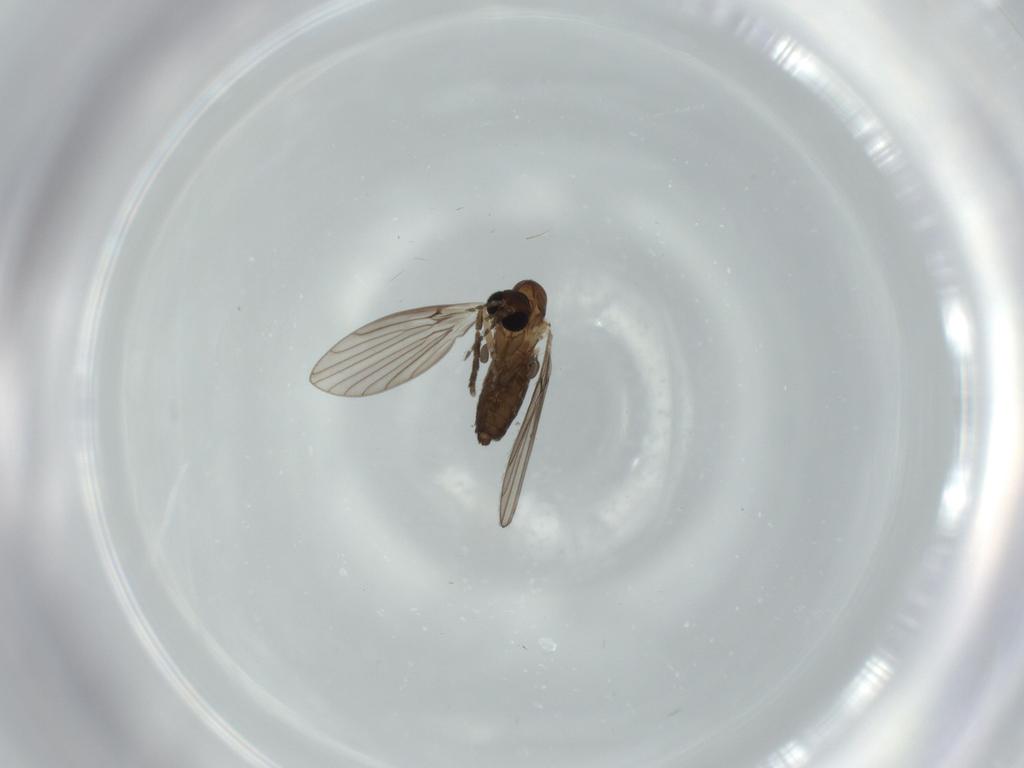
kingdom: Animalia
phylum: Arthropoda
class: Insecta
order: Diptera
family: Psychodidae
